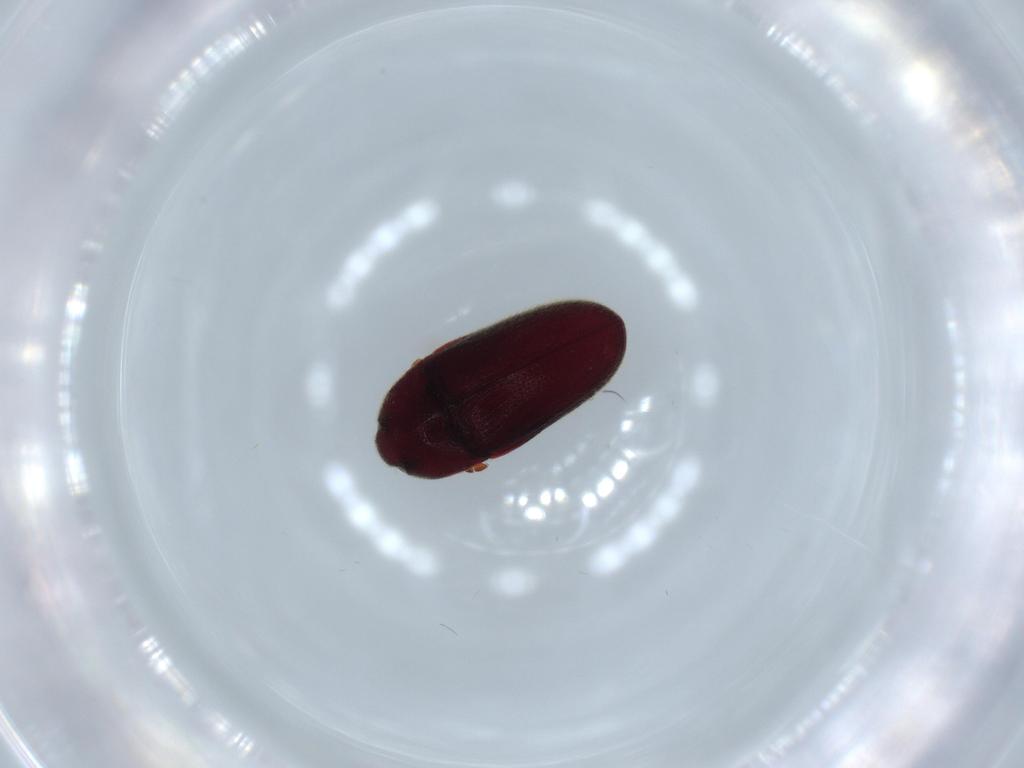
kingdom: Animalia
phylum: Arthropoda
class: Insecta
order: Coleoptera
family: Throscidae
